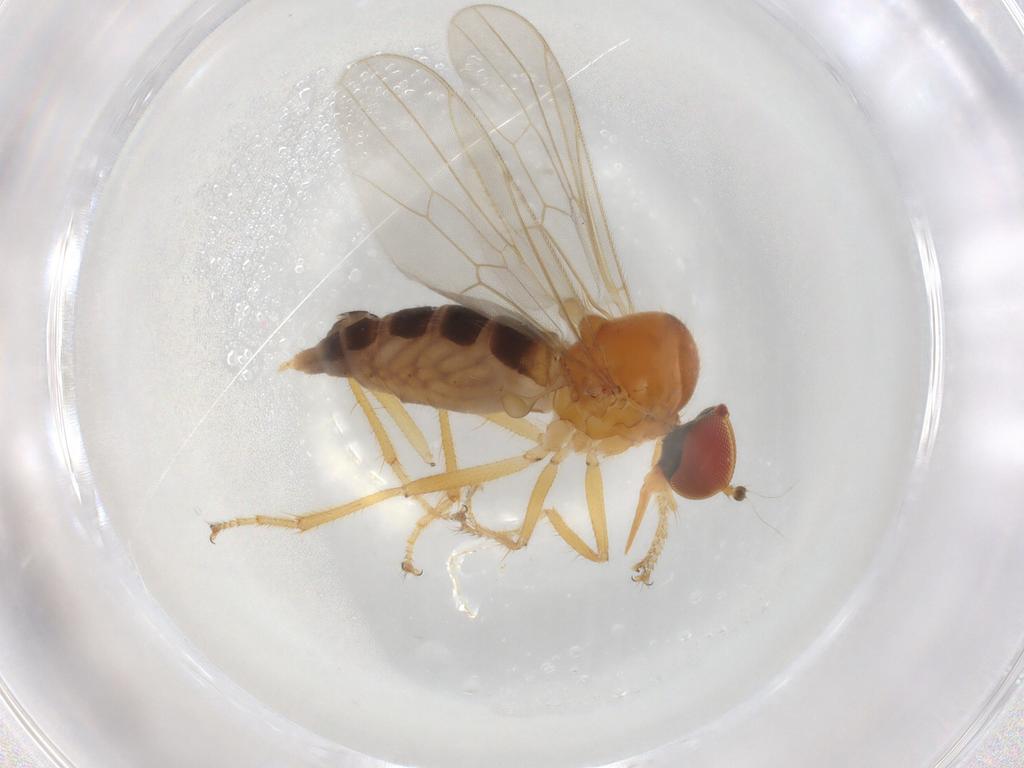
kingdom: Animalia
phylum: Arthropoda
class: Insecta
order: Diptera
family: Hybotidae
